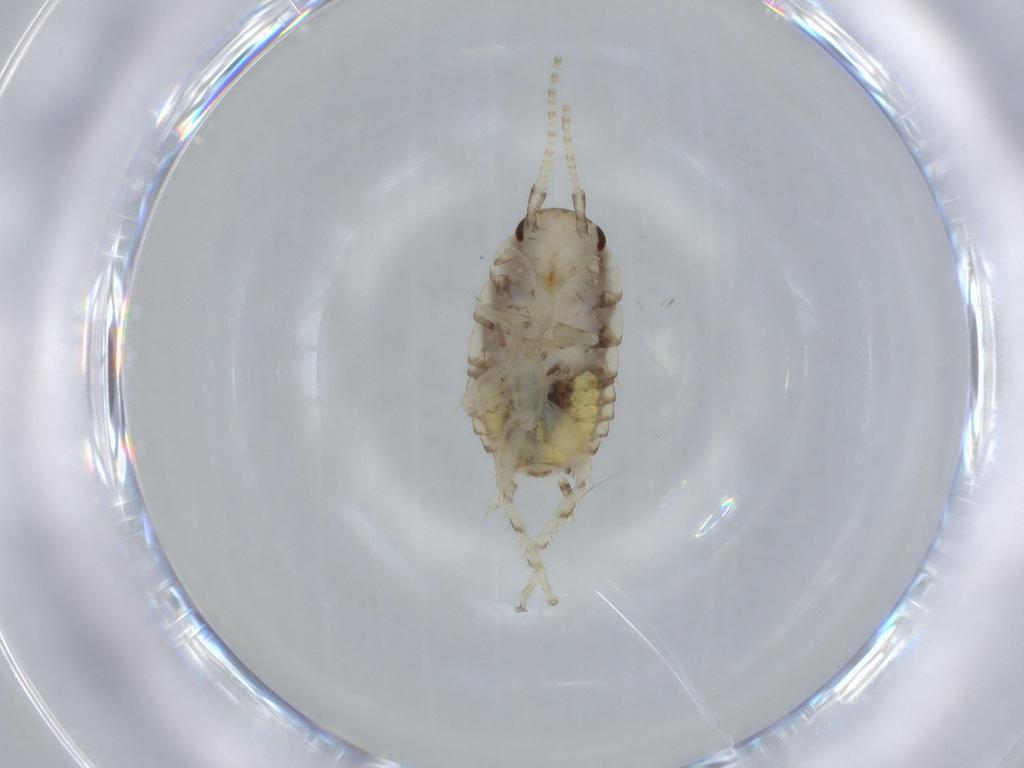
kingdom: Animalia
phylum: Arthropoda
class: Insecta
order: Blattodea
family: Ectobiidae
